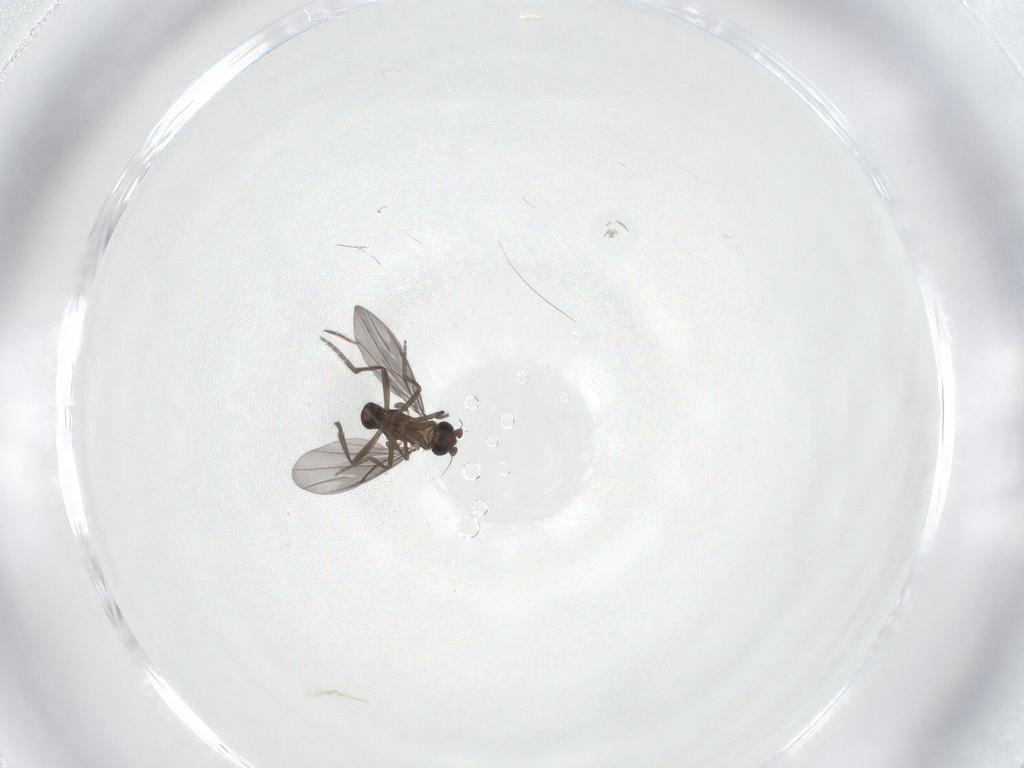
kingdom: Animalia
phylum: Arthropoda
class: Insecta
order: Diptera
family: Phoridae
